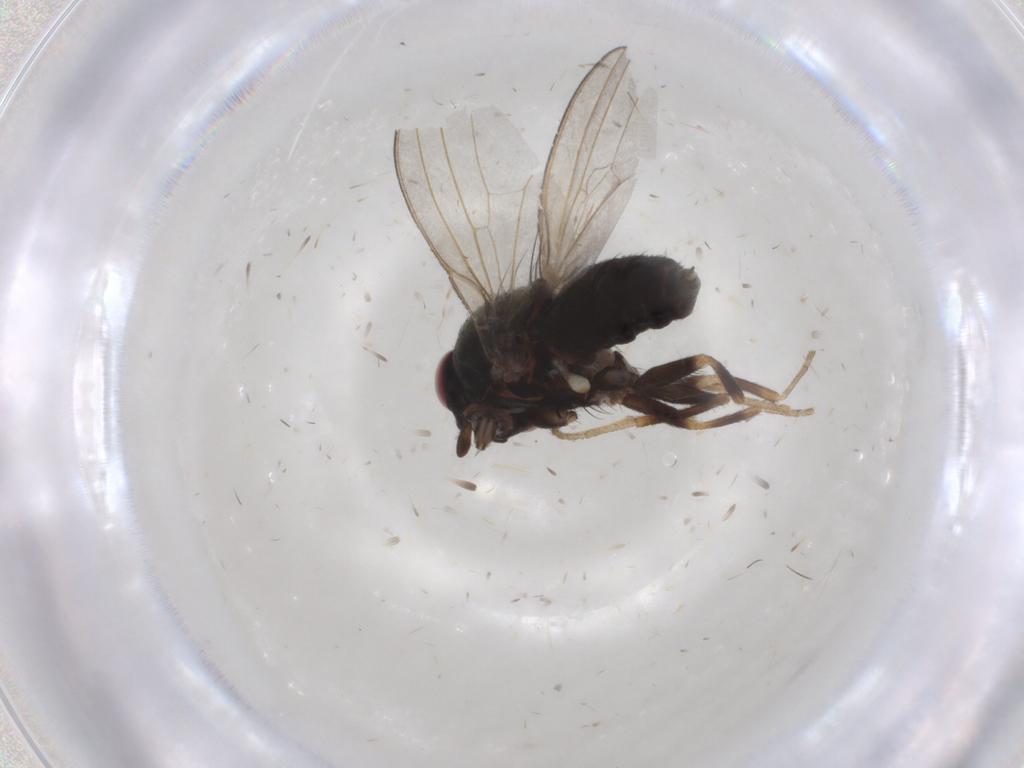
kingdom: Animalia
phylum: Arthropoda
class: Insecta
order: Diptera
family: Milichiidae
